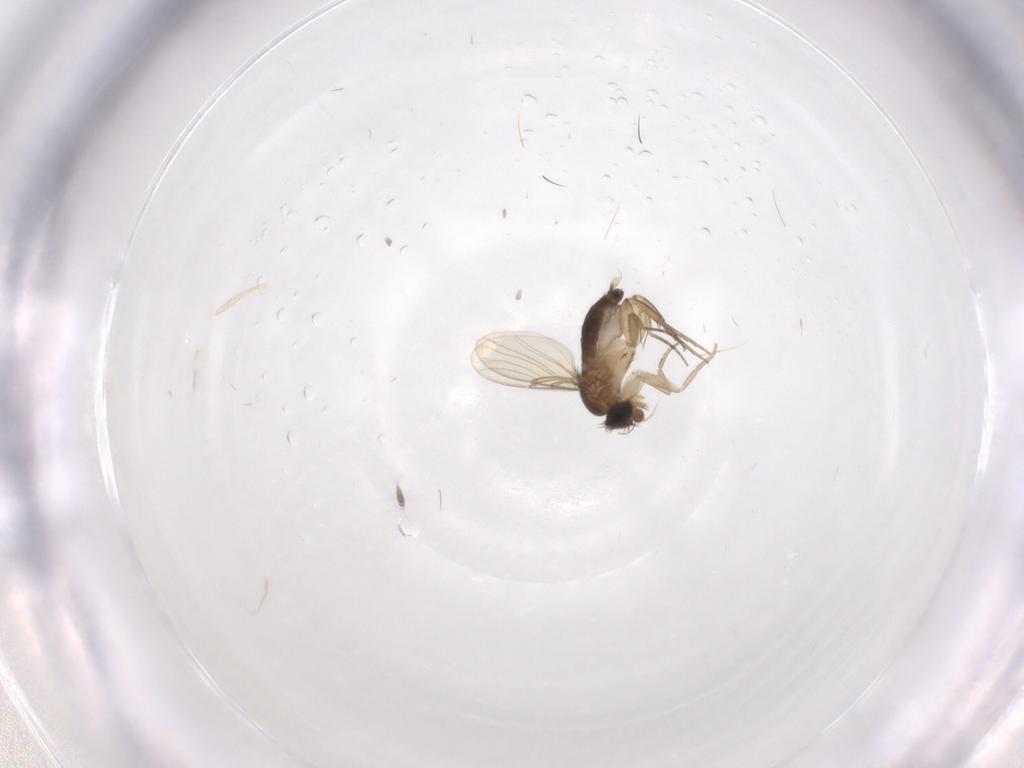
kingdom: Animalia
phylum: Arthropoda
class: Insecta
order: Diptera
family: Phoridae
